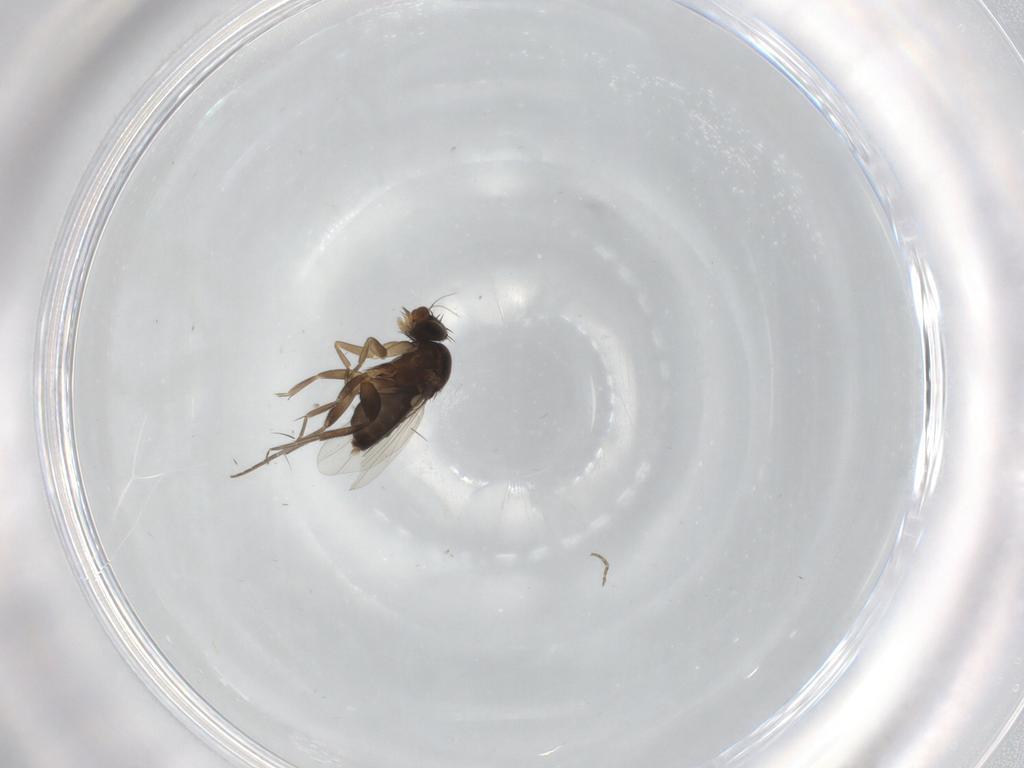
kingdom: Animalia
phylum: Arthropoda
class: Insecta
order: Diptera
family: Phoridae
